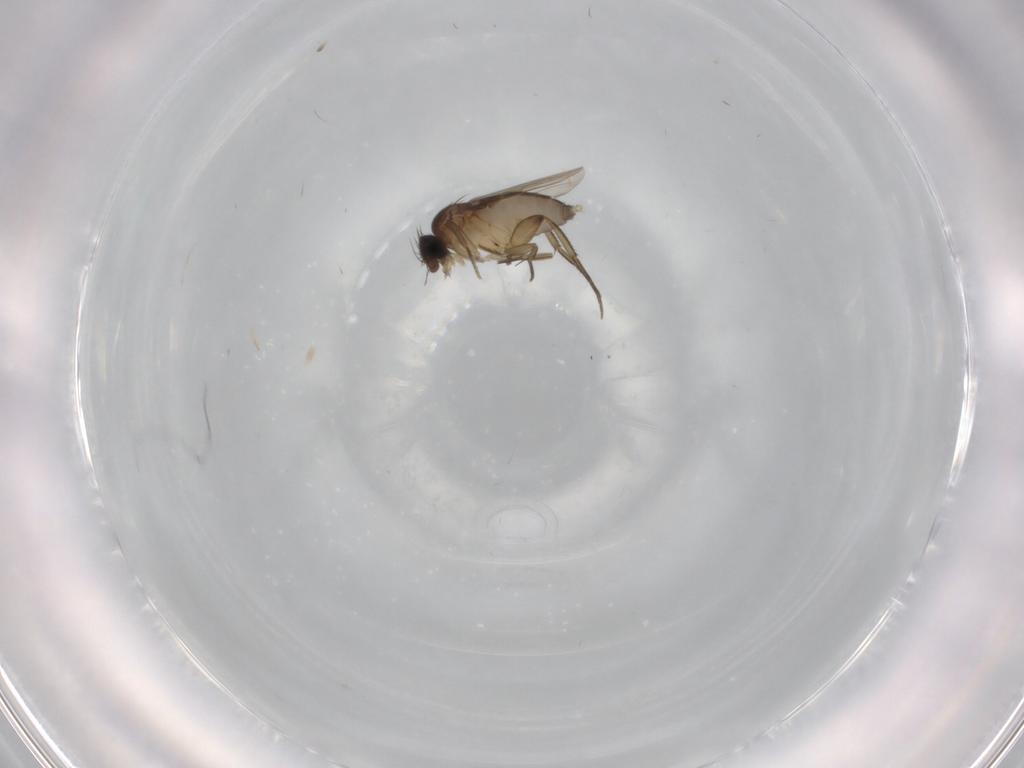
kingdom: Animalia
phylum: Arthropoda
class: Insecta
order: Diptera
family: Phoridae
